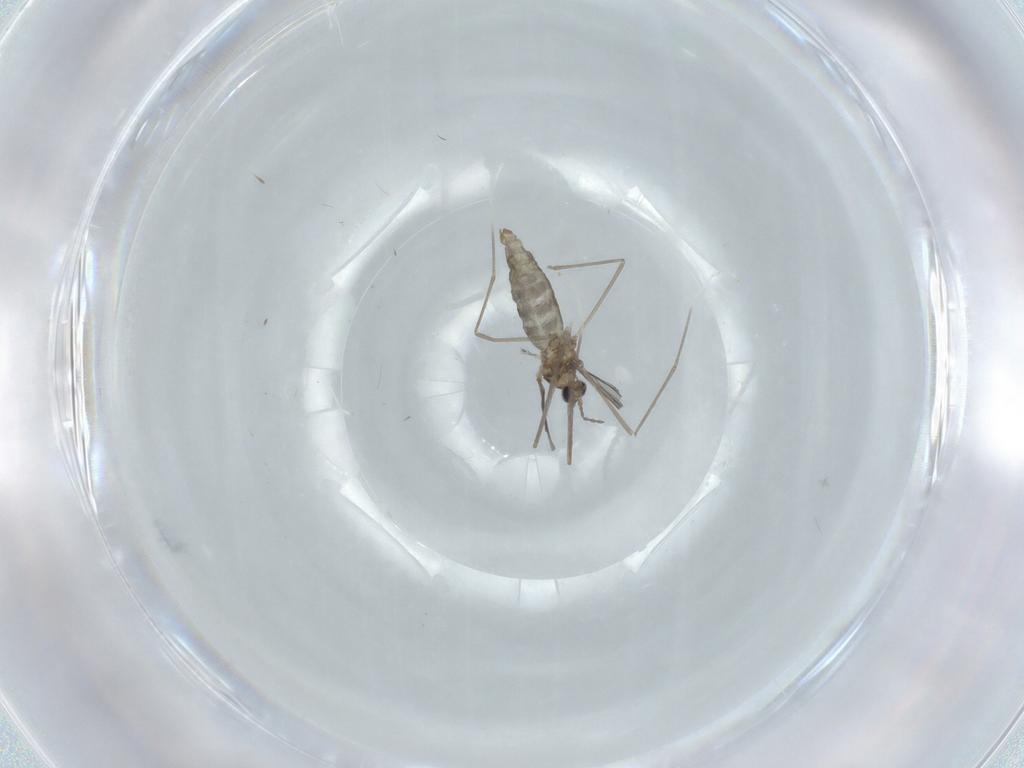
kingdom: Animalia
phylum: Arthropoda
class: Insecta
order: Diptera
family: Cecidomyiidae
